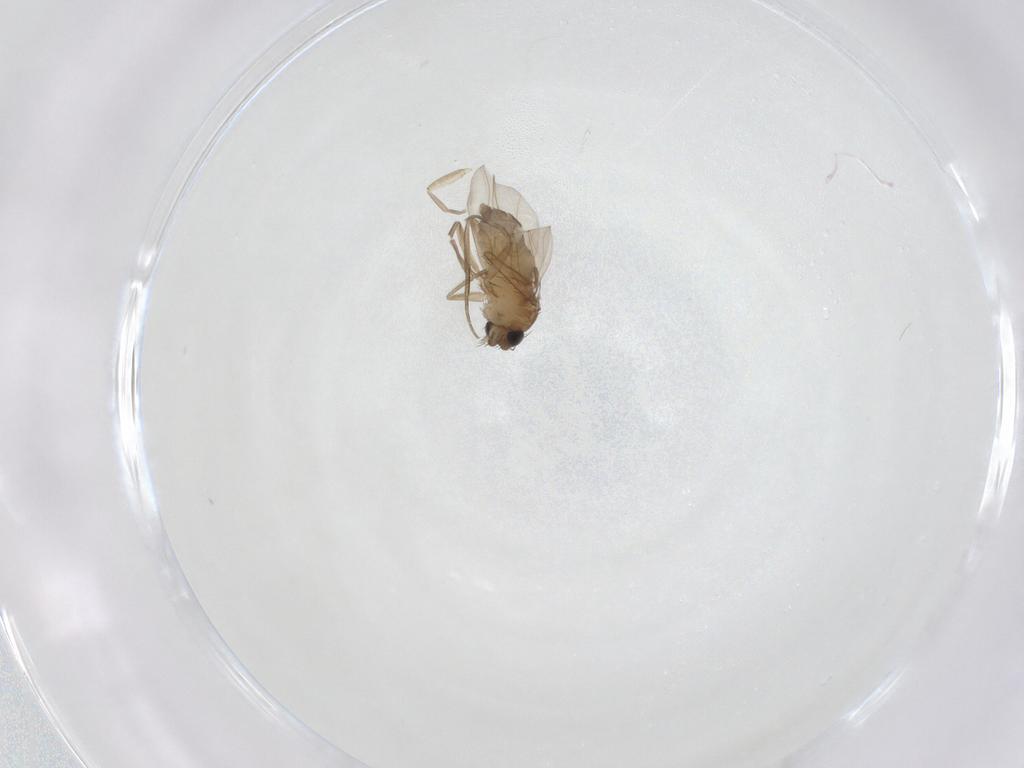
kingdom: Animalia
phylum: Arthropoda
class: Insecta
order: Diptera
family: Phoridae
